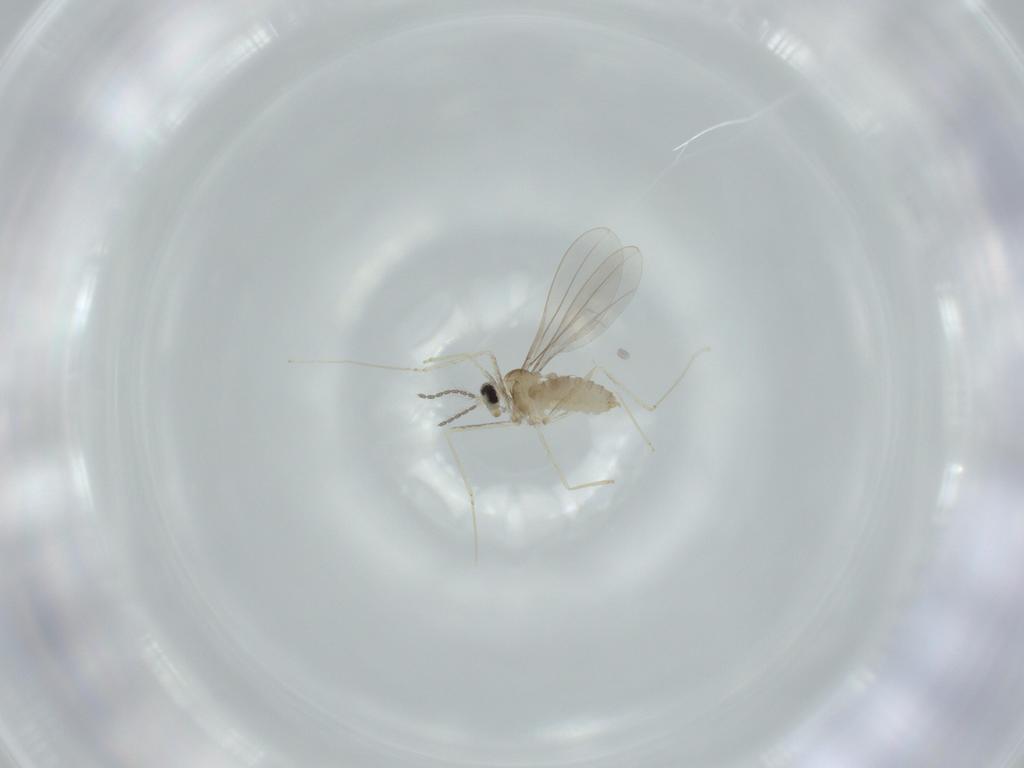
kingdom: Animalia
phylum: Arthropoda
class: Insecta
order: Diptera
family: Cecidomyiidae
